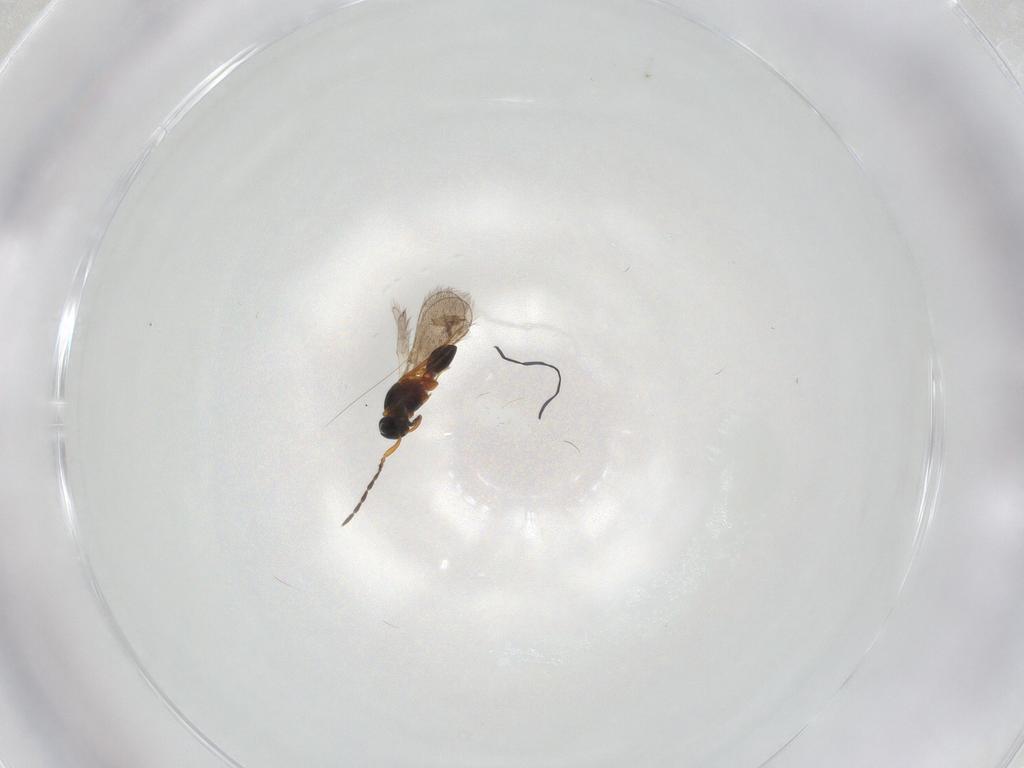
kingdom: Animalia
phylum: Arthropoda
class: Insecta
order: Hymenoptera
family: Platygastridae
